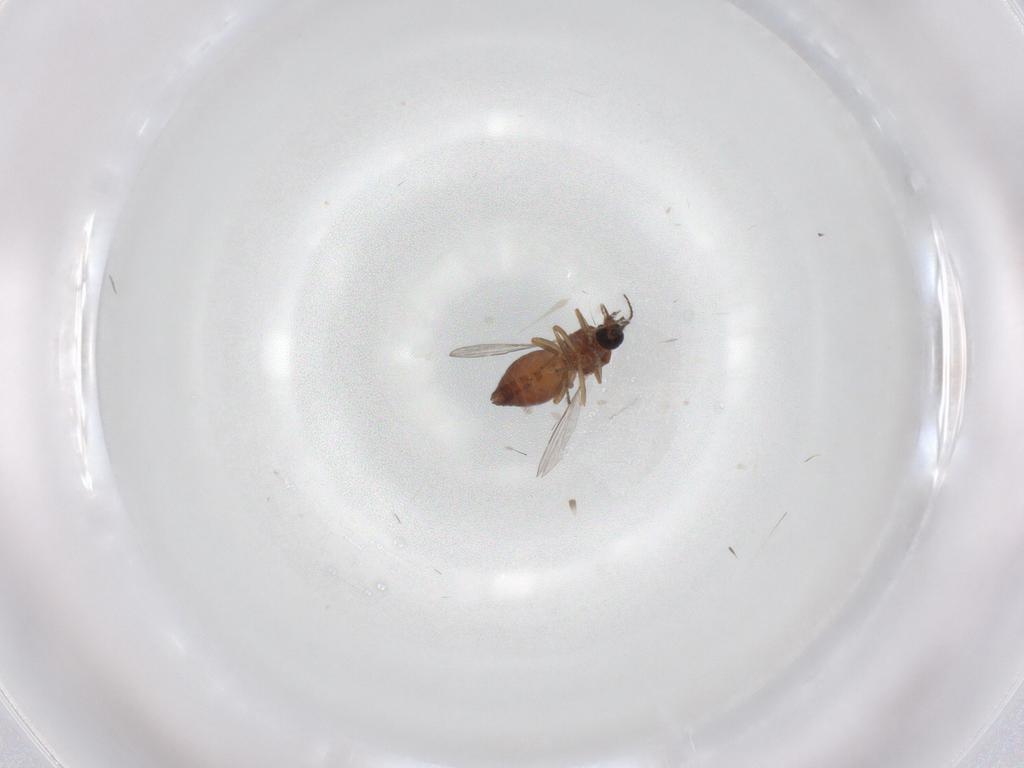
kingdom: Animalia
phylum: Arthropoda
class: Insecta
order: Diptera
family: Ceratopogonidae
